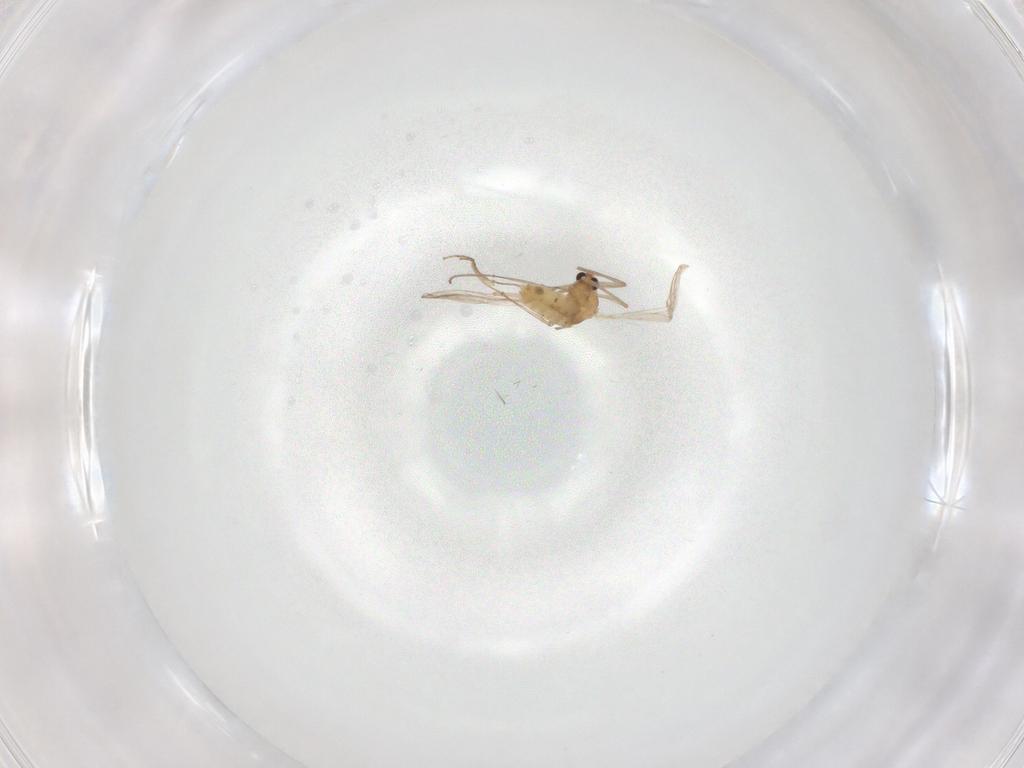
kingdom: Animalia
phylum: Arthropoda
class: Insecta
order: Diptera
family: Chironomidae
